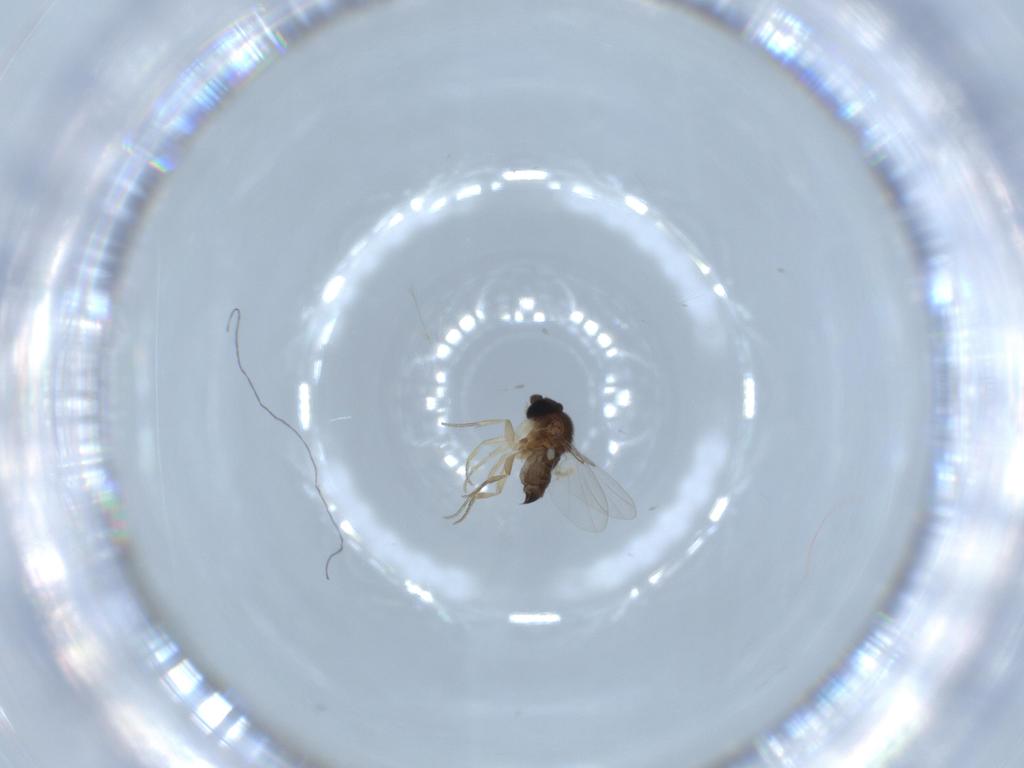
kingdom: Animalia
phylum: Arthropoda
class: Insecta
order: Diptera
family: Phoridae
